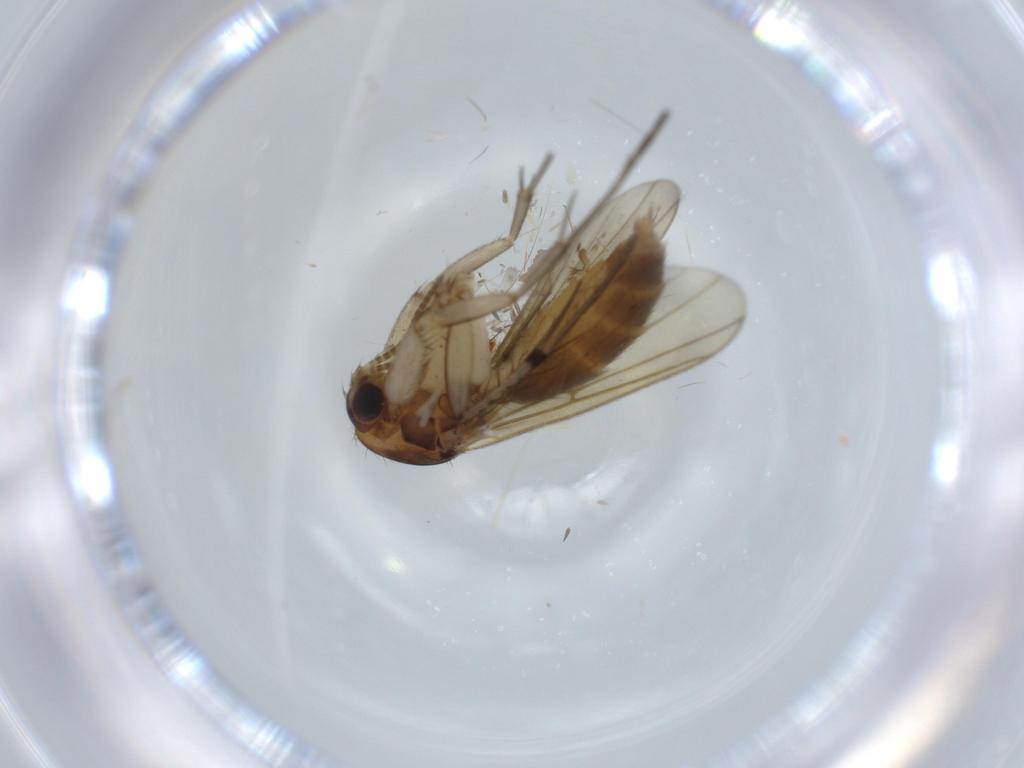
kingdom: Animalia
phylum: Arthropoda
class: Insecta
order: Diptera
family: Mycetophilidae
